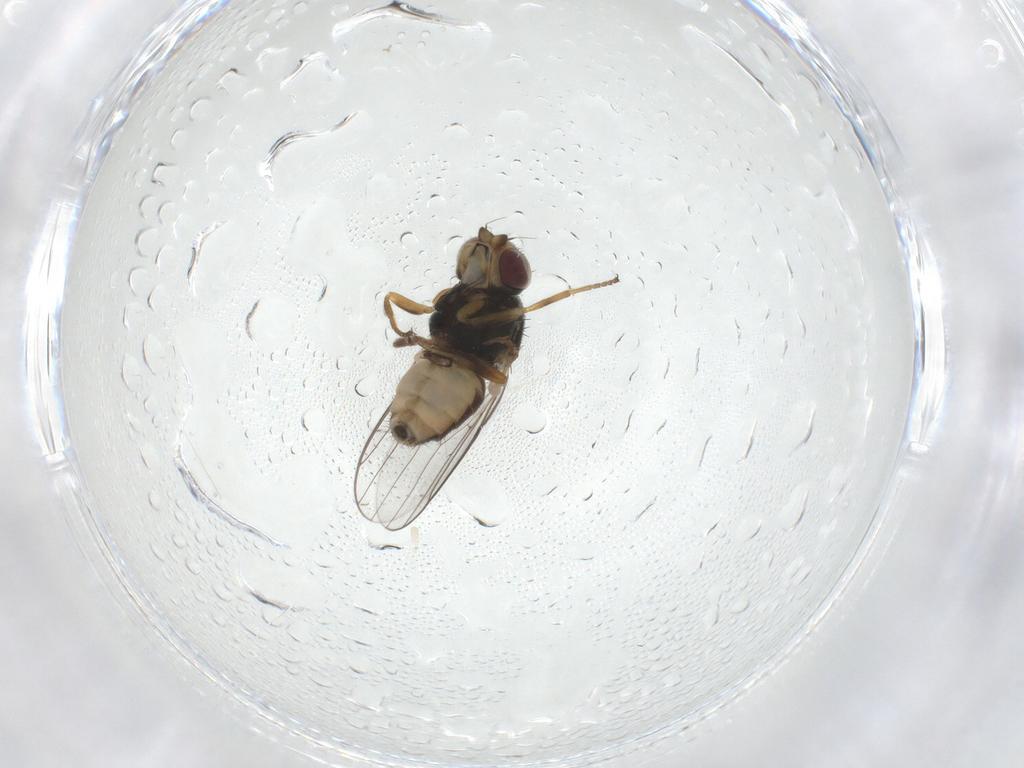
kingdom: Animalia
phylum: Arthropoda
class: Insecta
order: Diptera
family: Chloropidae
